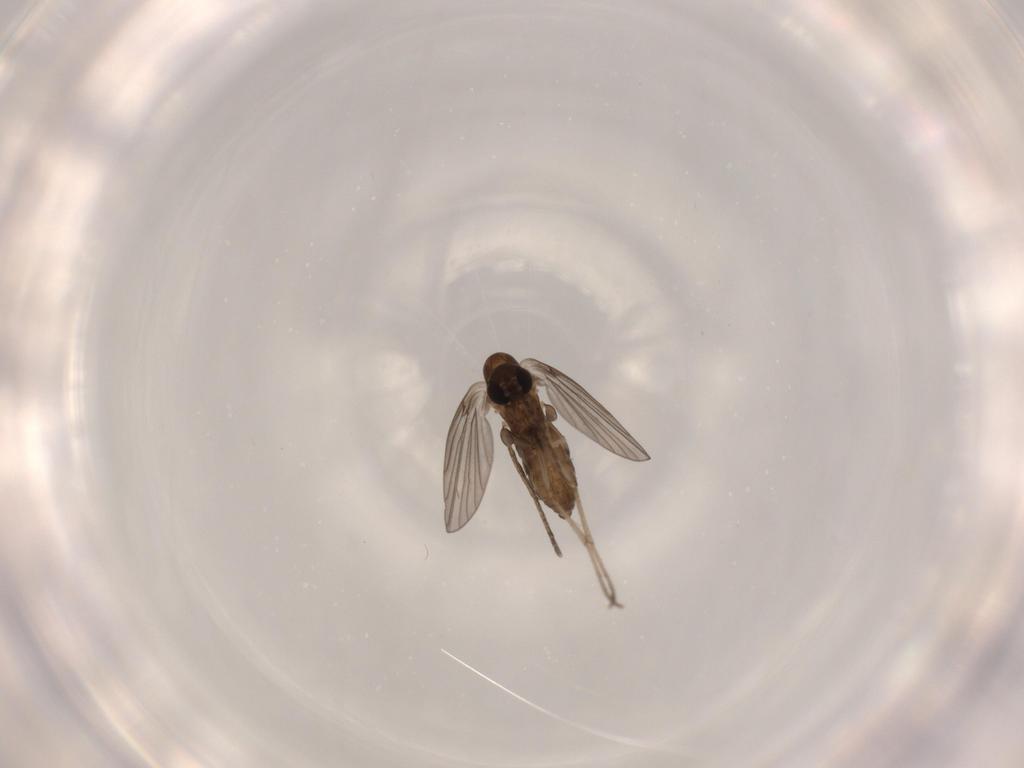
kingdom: Animalia
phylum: Arthropoda
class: Insecta
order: Diptera
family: Psychodidae
